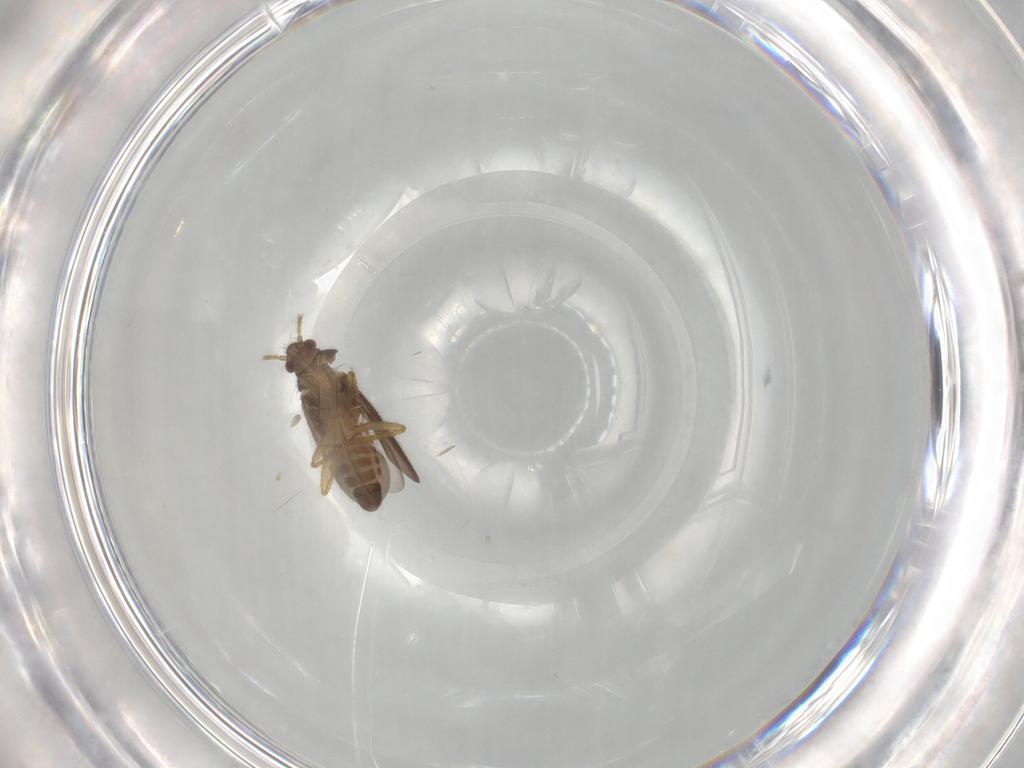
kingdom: Animalia
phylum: Arthropoda
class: Insecta
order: Hemiptera
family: Ceratocombidae
